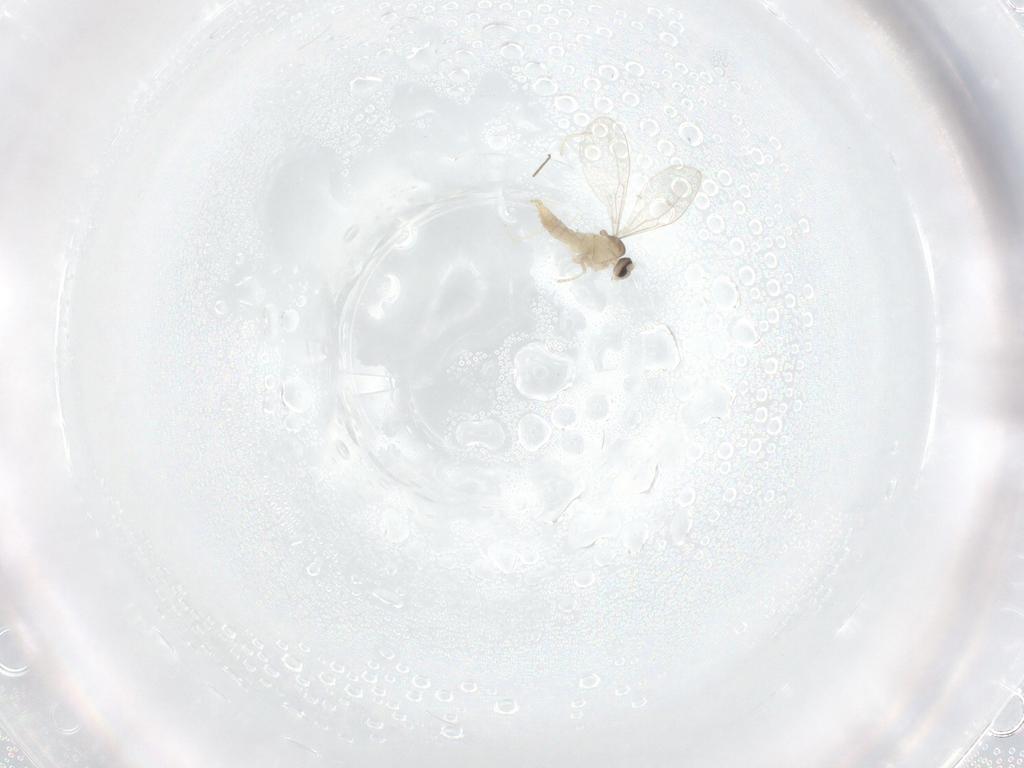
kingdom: Animalia
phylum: Arthropoda
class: Insecta
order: Diptera
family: Cecidomyiidae
